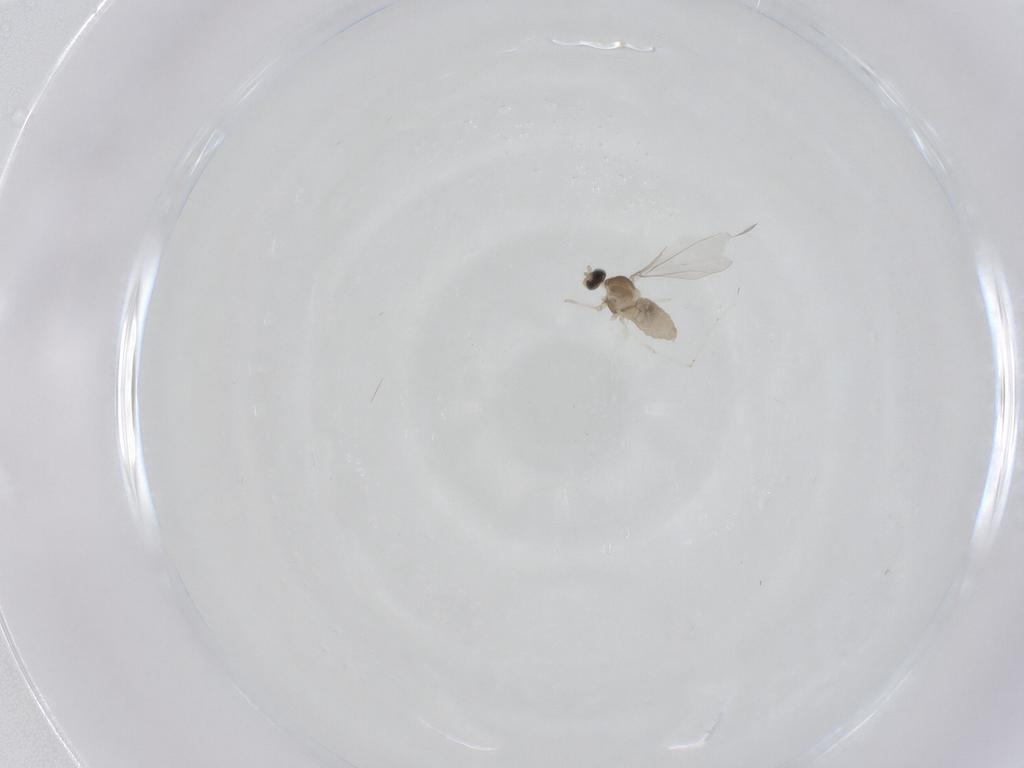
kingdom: Animalia
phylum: Arthropoda
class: Insecta
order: Diptera
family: Cecidomyiidae
